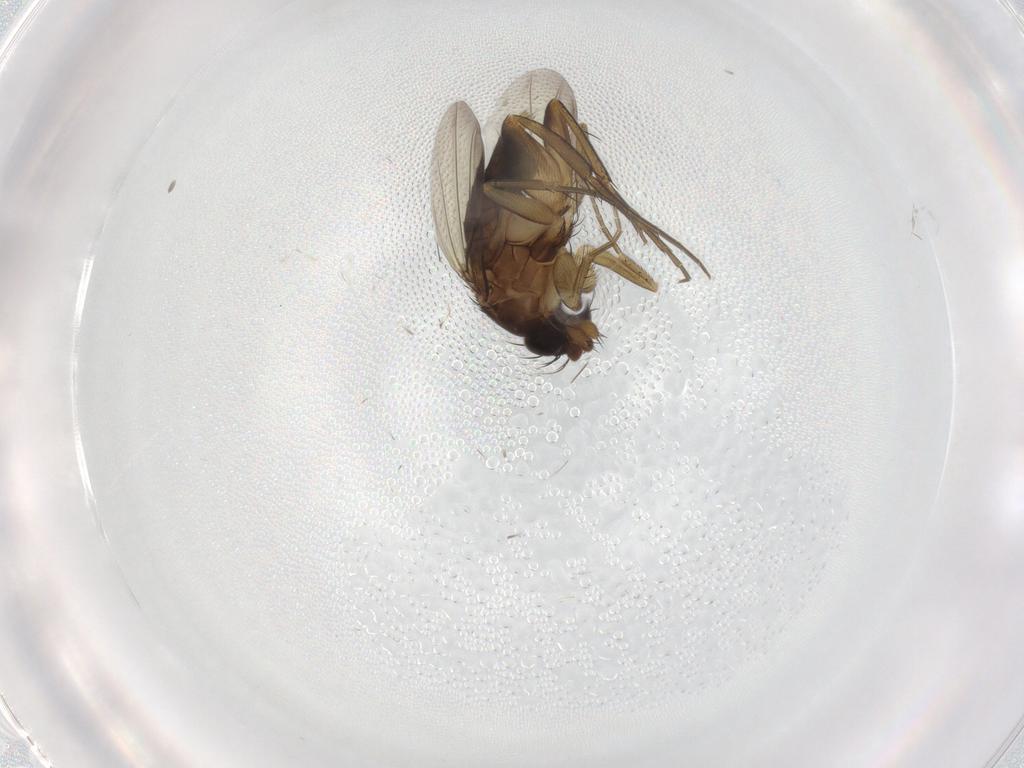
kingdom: Animalia
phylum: Arthropoda
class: Insecta
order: Diptera
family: Phoridae
